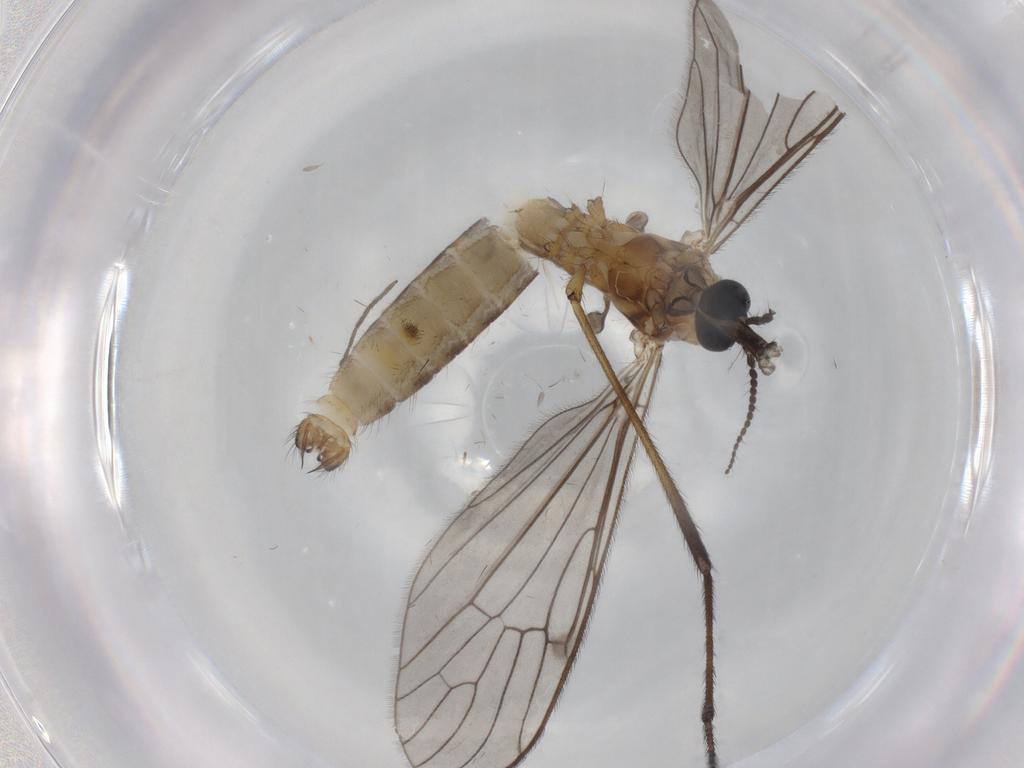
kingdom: Animalia
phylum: Arthropoda
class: Insecta
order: Diptera
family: Limoniidae
